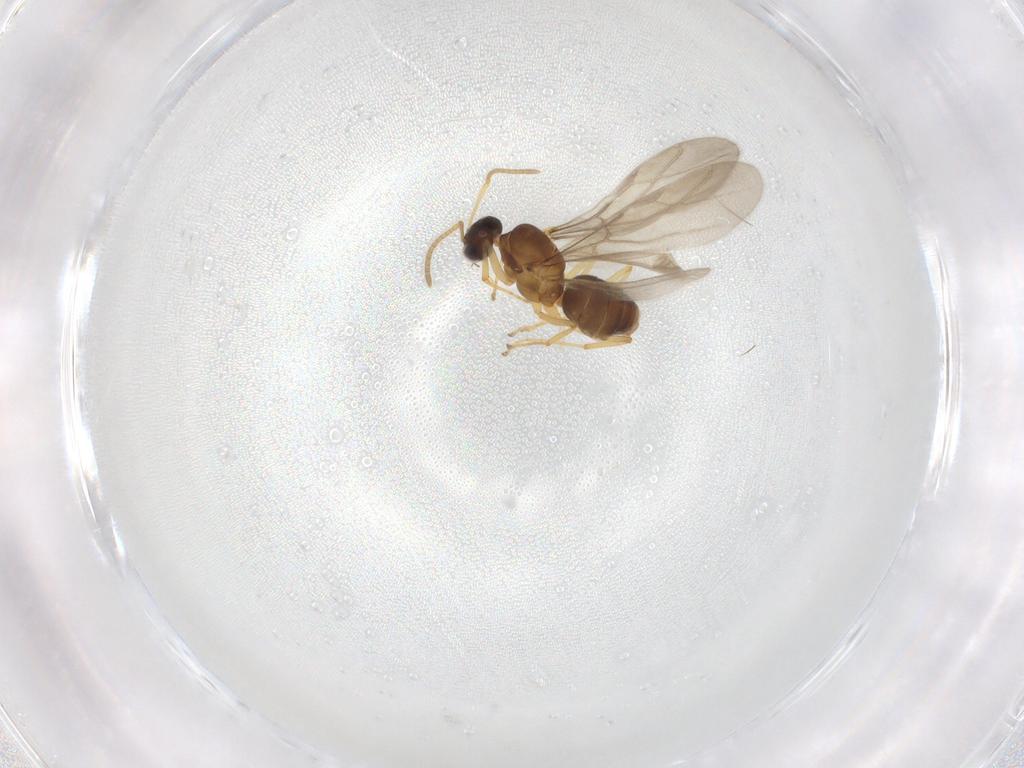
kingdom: Animalia
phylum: Arthropoda
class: Insecta
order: Hymenoptera
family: Formicidae
